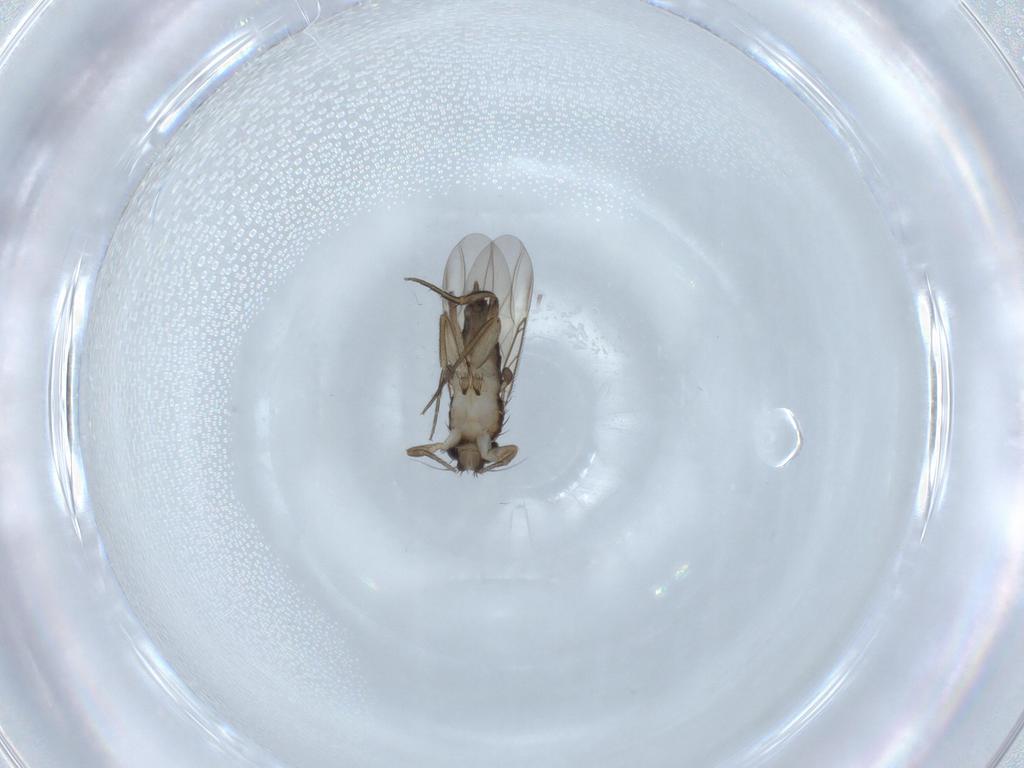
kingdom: Animalia
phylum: Arthropoda
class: Insecta
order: Diptera
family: Phoridae
